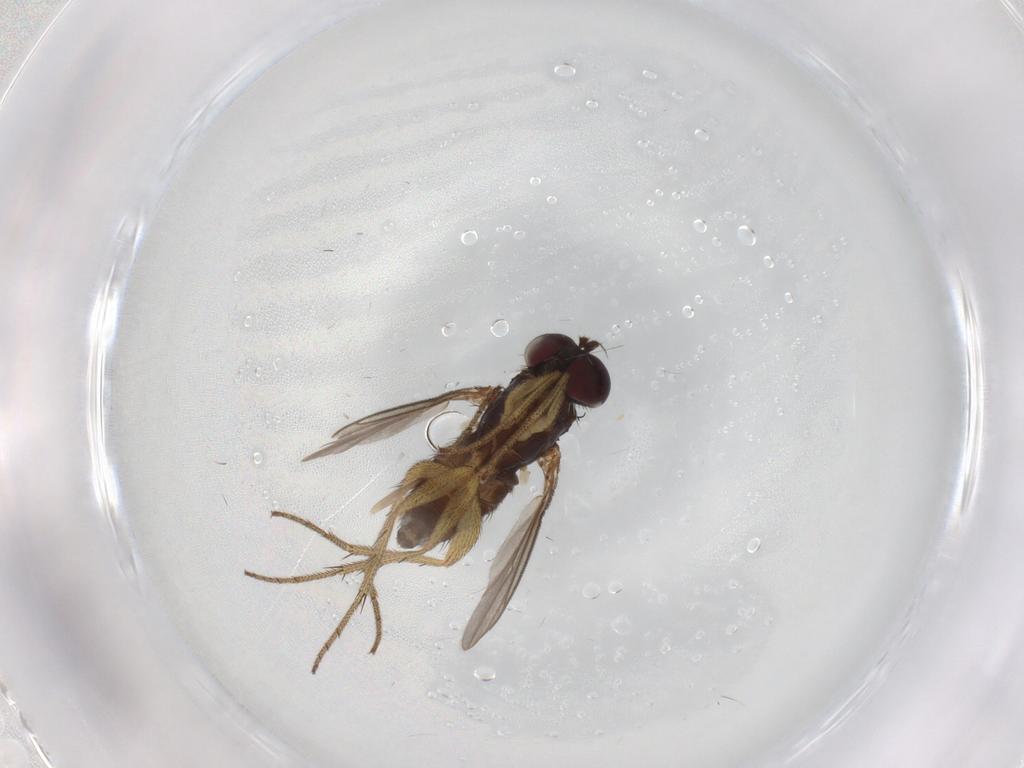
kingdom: Animalia
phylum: Arthropoda
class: Insecta
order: Diptera
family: Dolichopodidae
